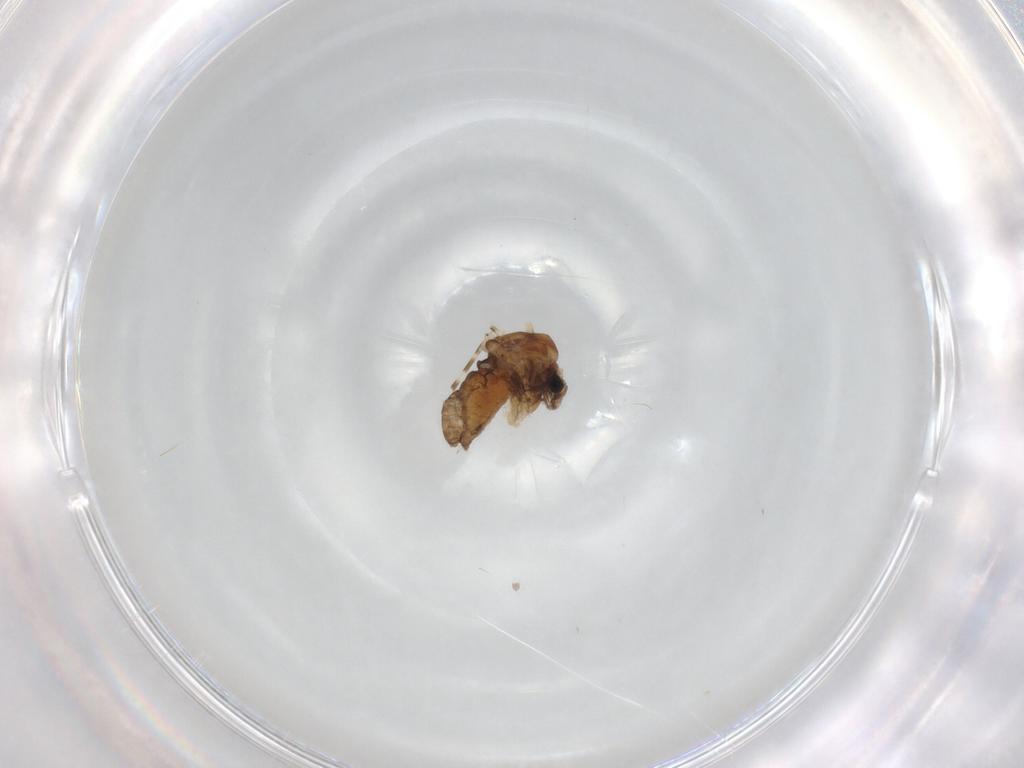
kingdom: Animalia
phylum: Arthropoda
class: Insecta
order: Diptera
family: Chironomidae
